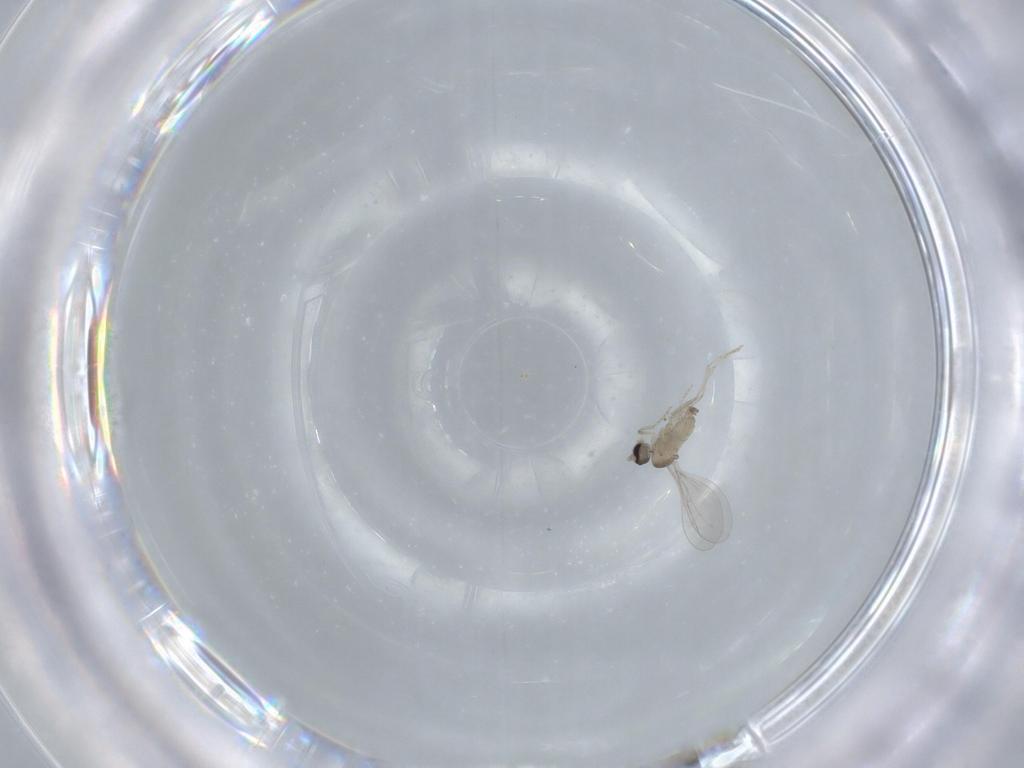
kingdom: Animalia
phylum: Arthropoda
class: Insecta
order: Diptera
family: Cecidomyiidae
